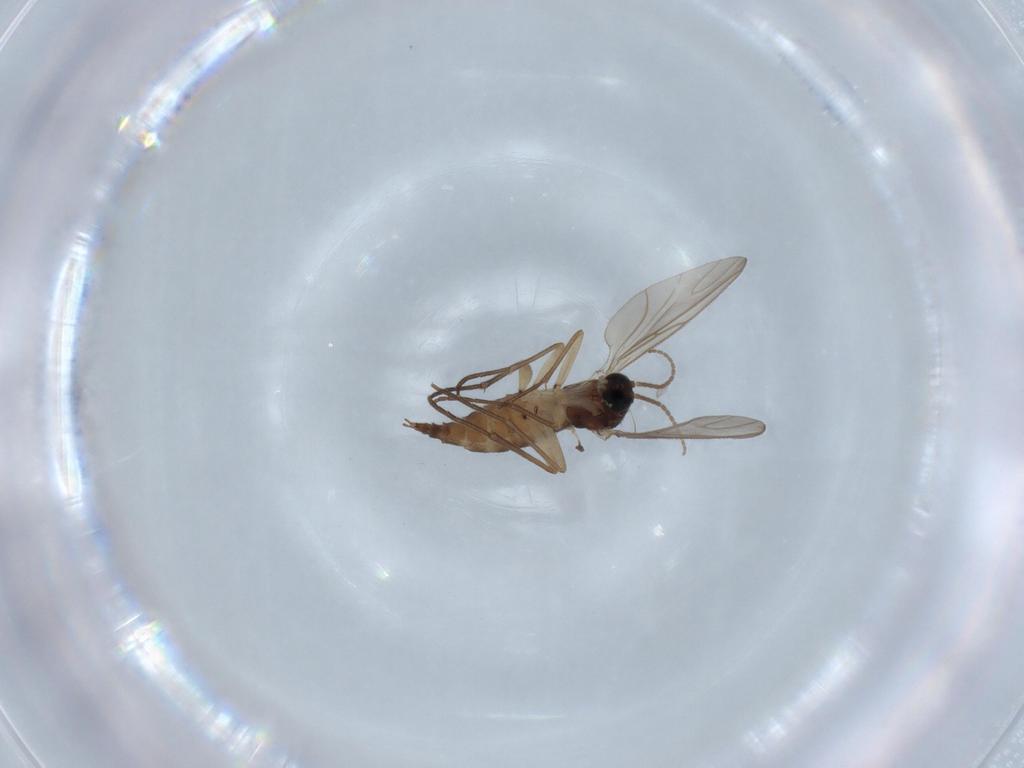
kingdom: Animalia
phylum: Arthropoda
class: Insecta
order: Diptera
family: Sciaridae
